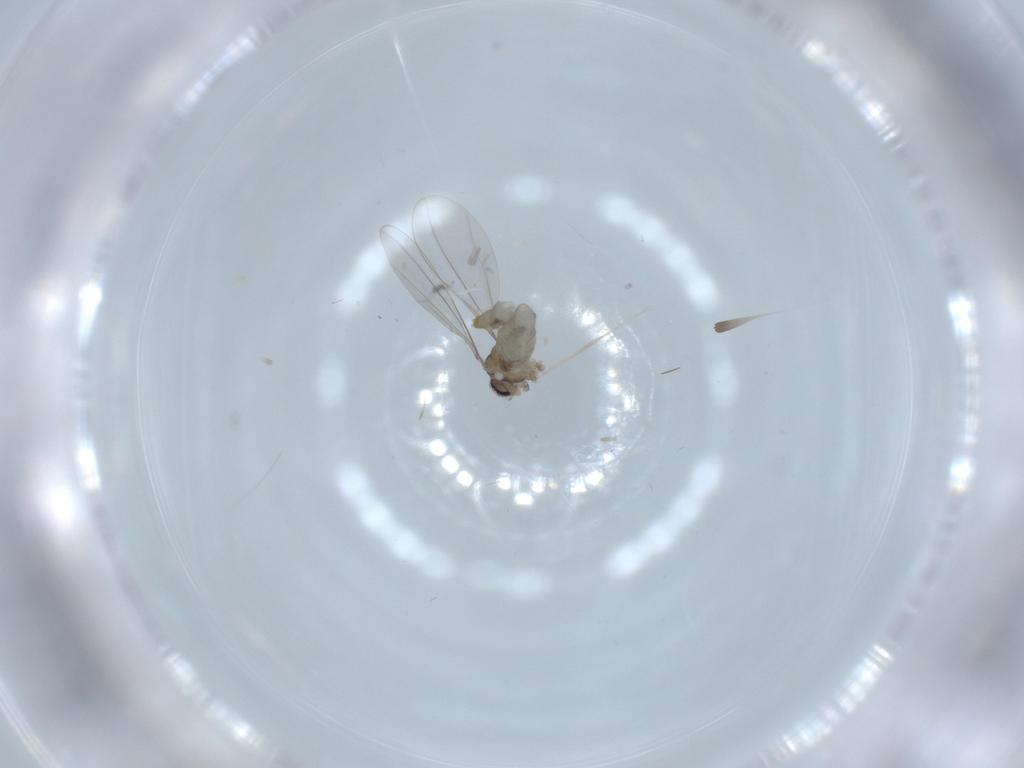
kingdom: Animalia
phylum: Arthropoda
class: Insecta
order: Diptera
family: Cecidomyiidae
